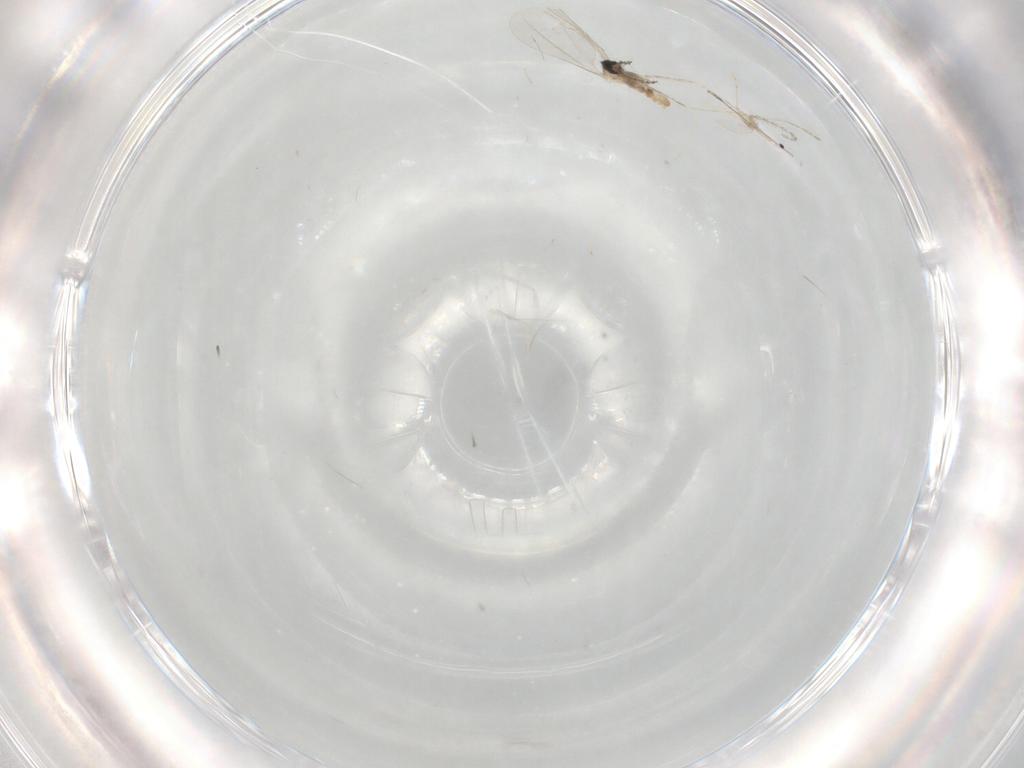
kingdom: Animalia
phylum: Arthropoda
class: Insecta
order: Diptera
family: Cecidomyiidae
